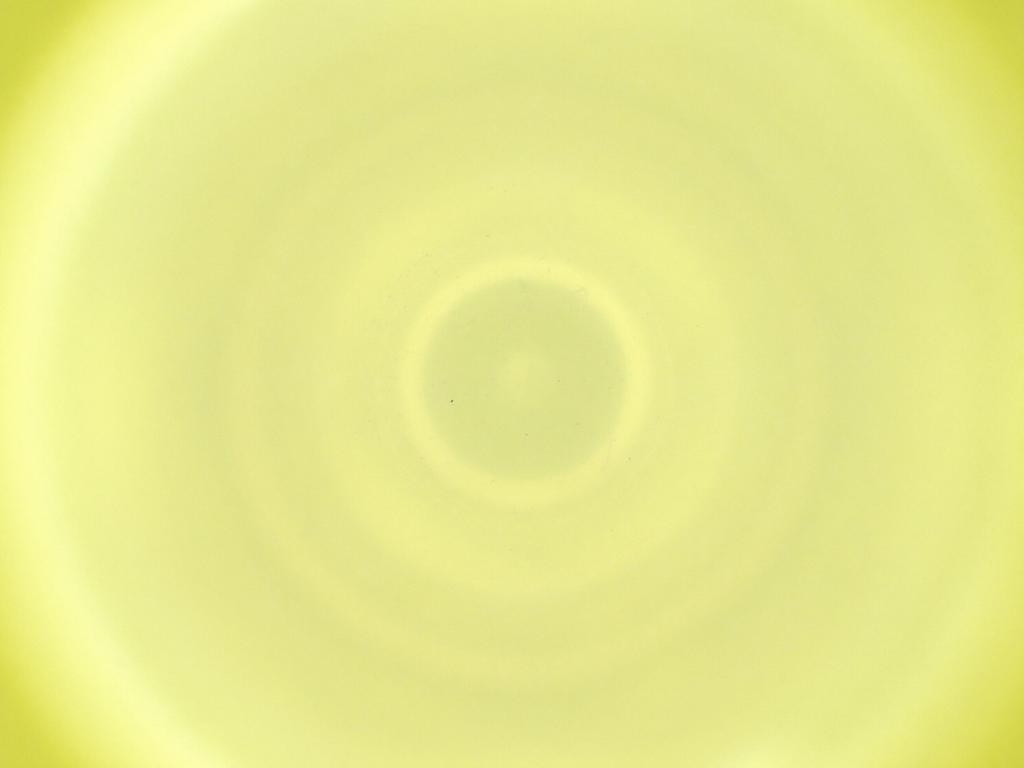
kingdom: Animalia
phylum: Arthropoda
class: Insecta
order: Diptera
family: Cecidomyiidae
